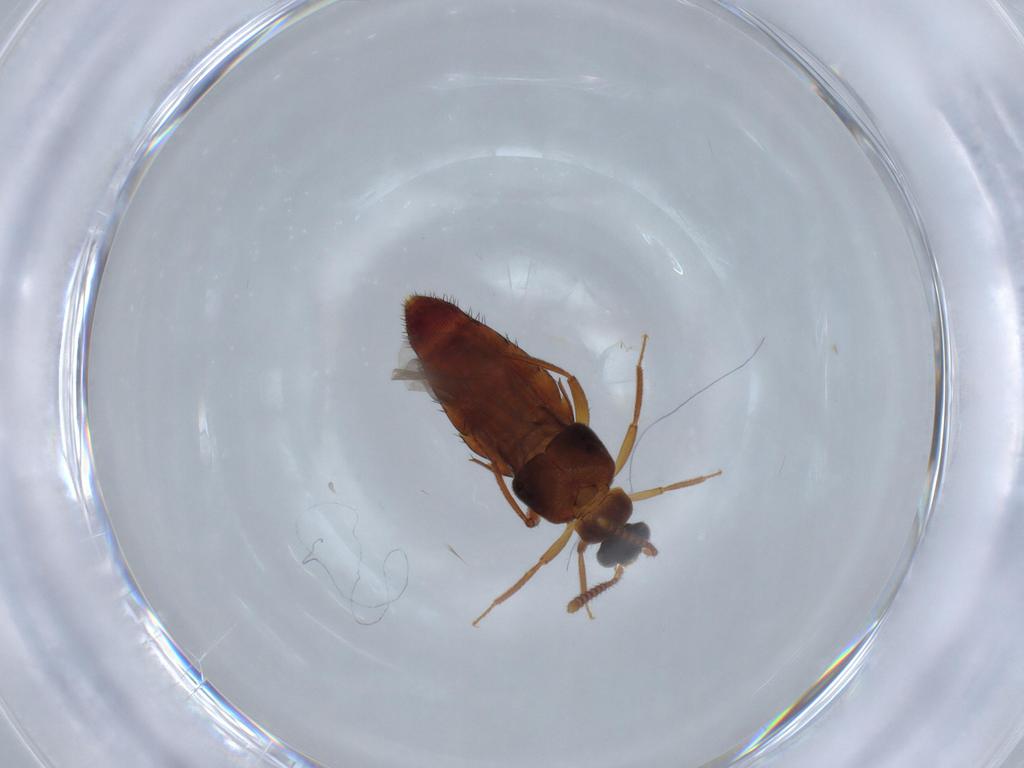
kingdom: Animalia
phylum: Arthropoda
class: Insecta
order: Coleoptera
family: Staphylinidae
